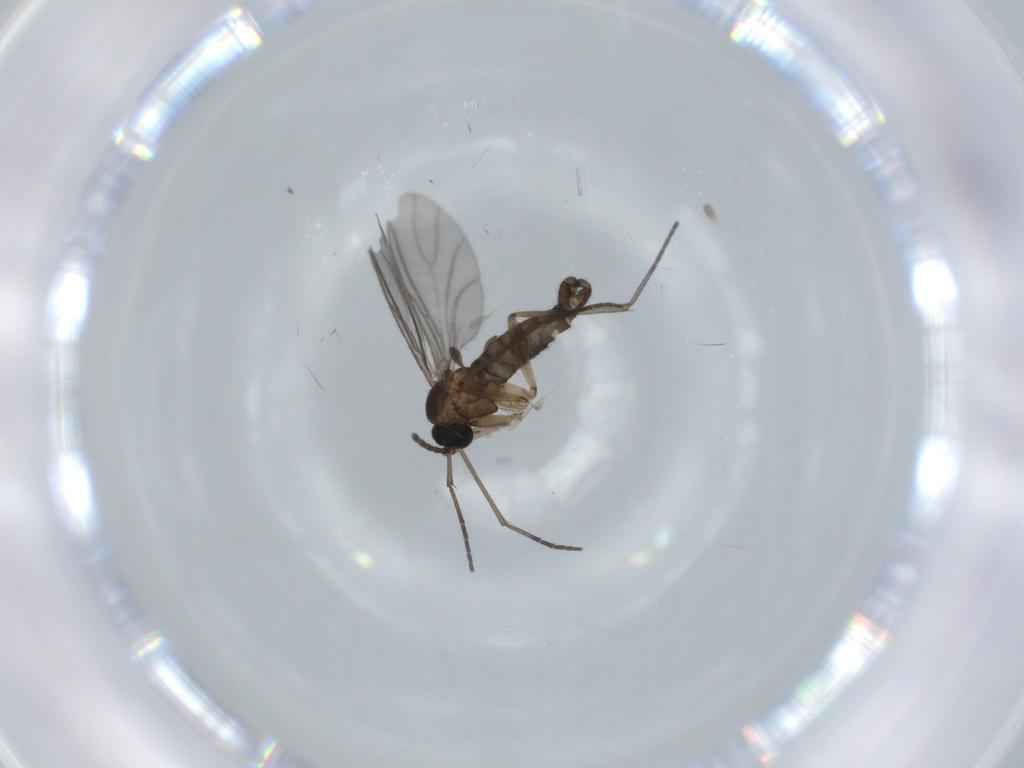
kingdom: Animalia
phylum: Arthropoda
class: Insecta
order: Diptera
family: Sciaridae
